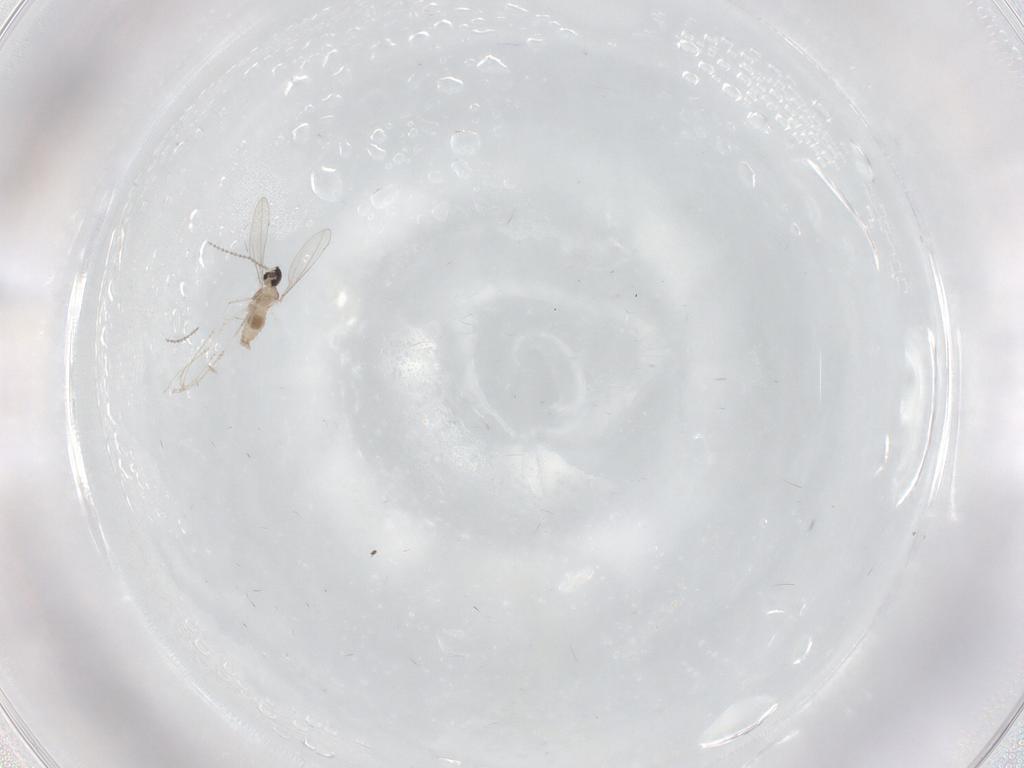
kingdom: Animalia
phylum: Arthropoda
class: Insecta
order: Diptera
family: Cecidomyiidae
